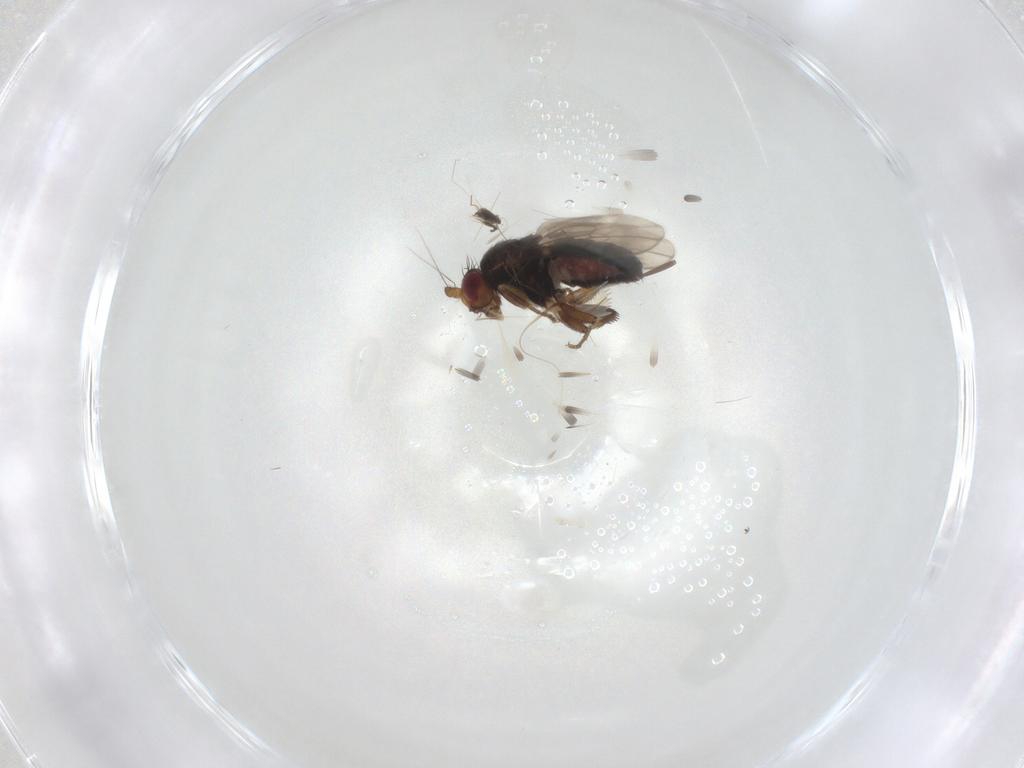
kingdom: Animalia
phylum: Arthropoda
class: Insecta
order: Diptera
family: Sphaeroceridae
